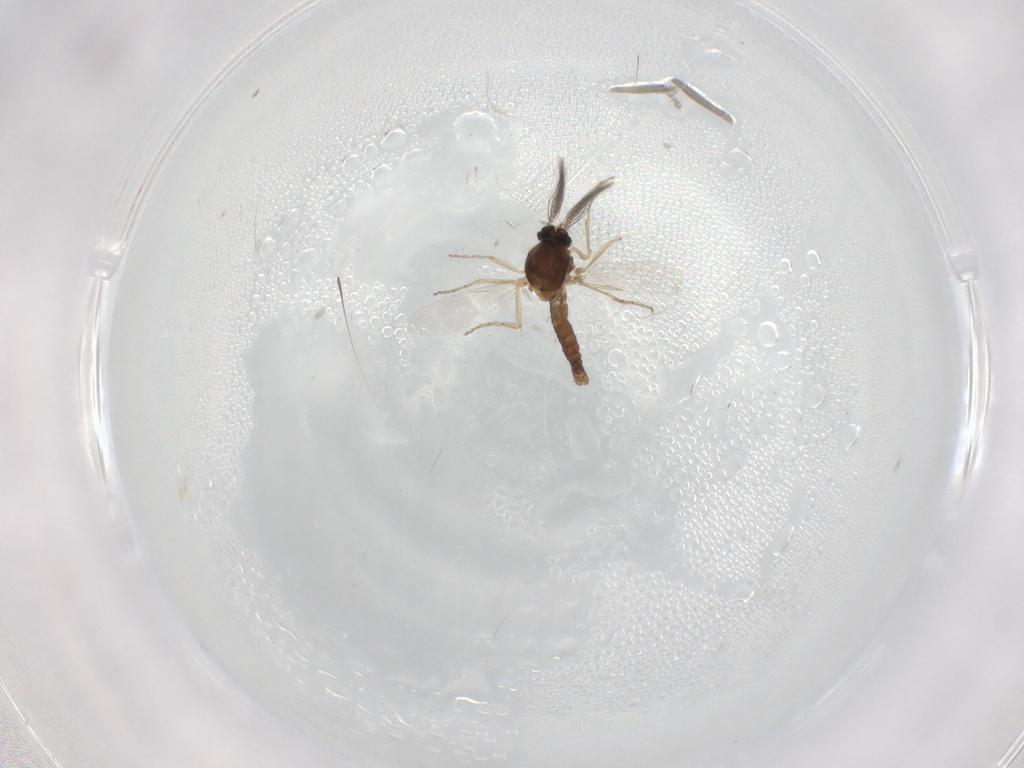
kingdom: Animalia
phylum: Arthropoda
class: Insecta
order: Diptera
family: Ceratopogonidae
